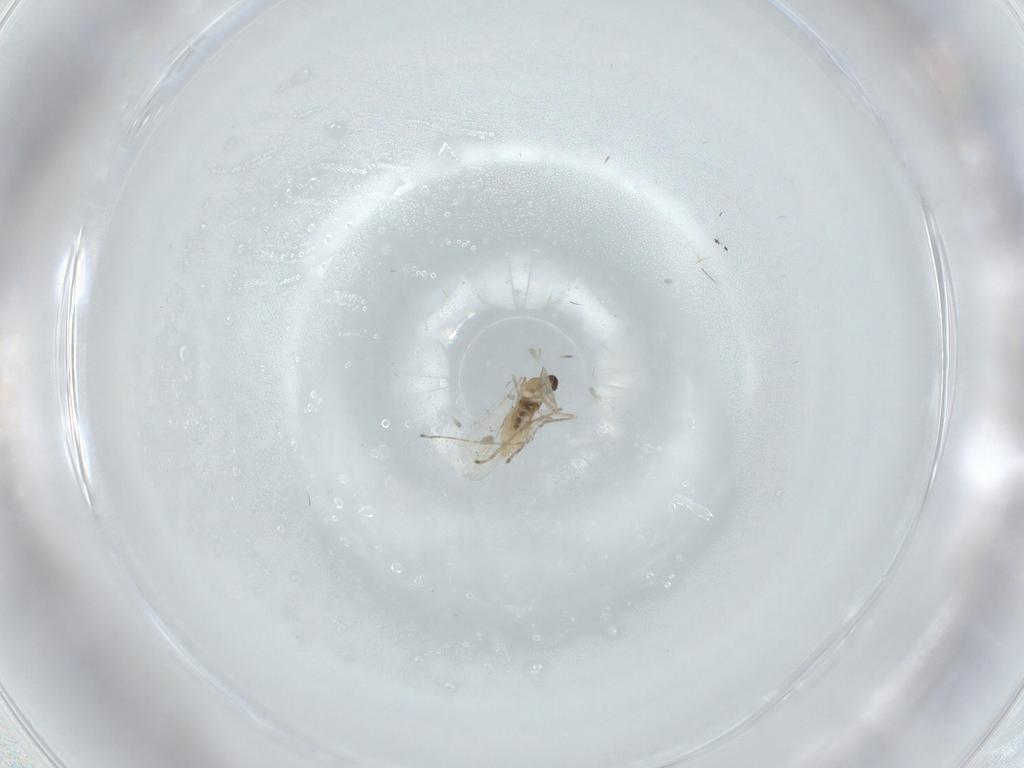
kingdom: Animalia
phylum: Arthropoda
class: Insecta
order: Diptera
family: Cecidomyiidae
